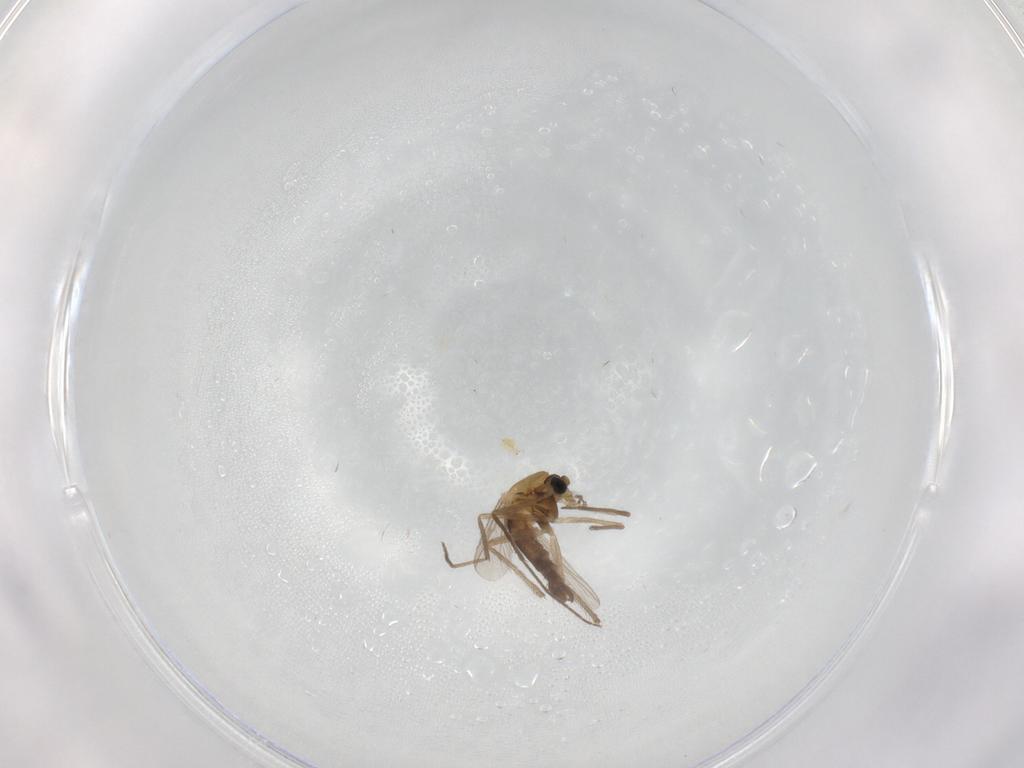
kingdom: Animalia
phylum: Arthropoda
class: Insecta
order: Diptera
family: Chironomidae
